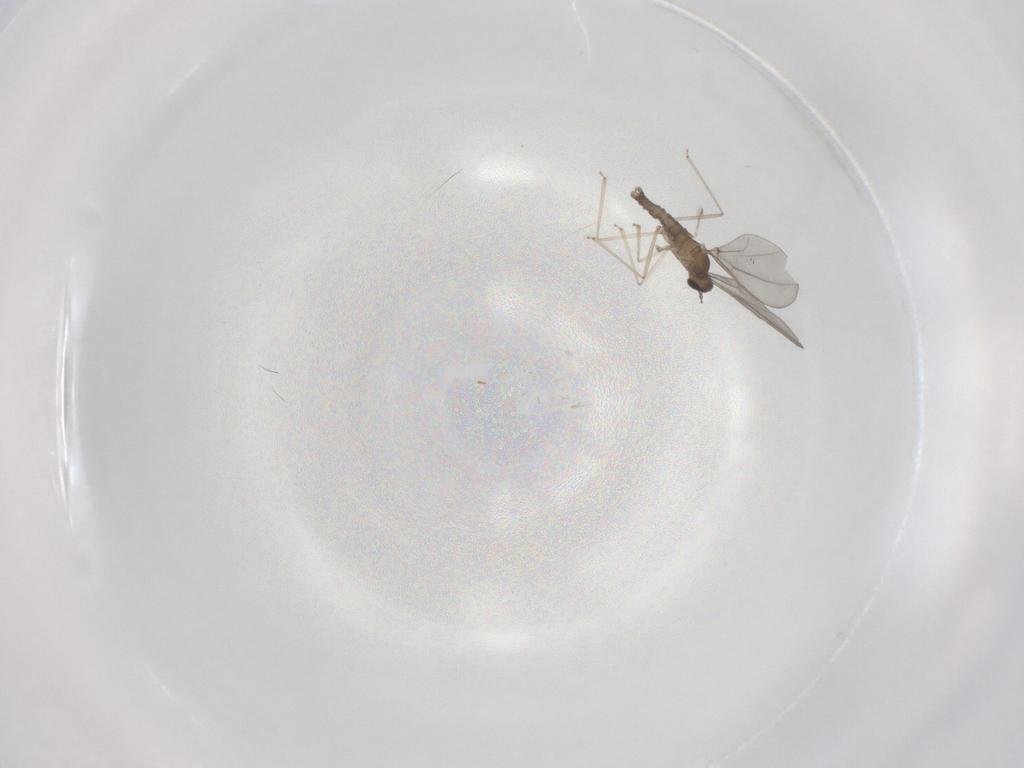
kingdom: Animalia
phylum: Arthropoda
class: Insecta
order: Diptera
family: Cecidomyiidae
